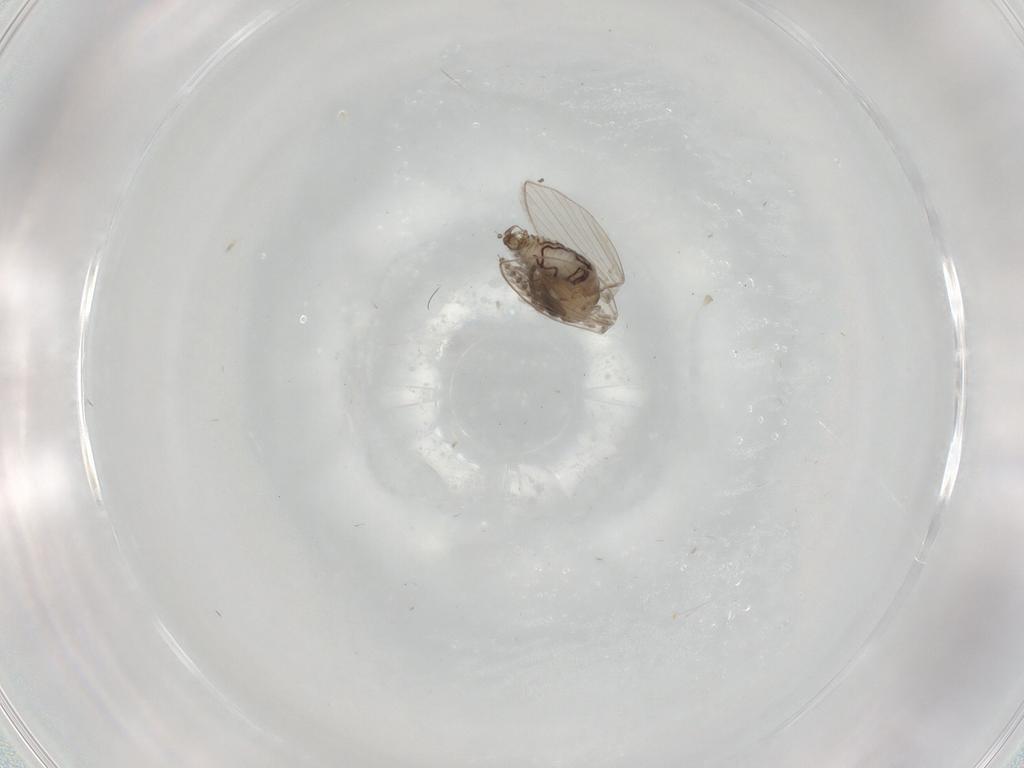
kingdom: Animalia
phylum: Arthropoda
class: Insecta
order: Diptera
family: Psychodidae
